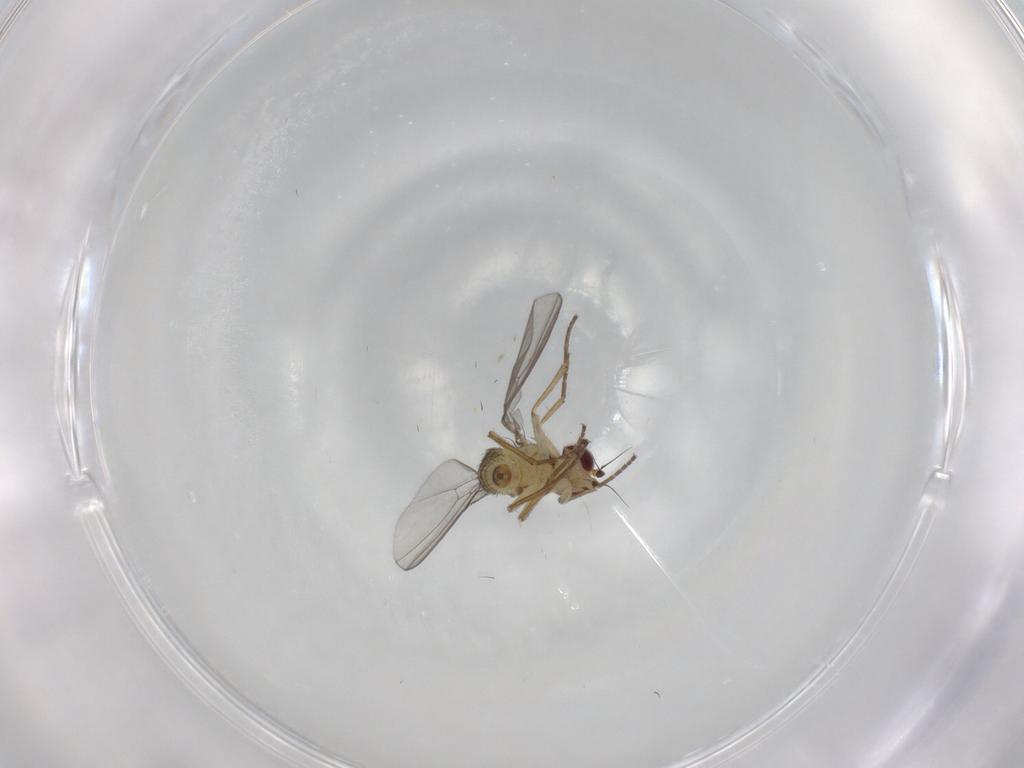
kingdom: Animalia
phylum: Arthropoda
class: Insecta
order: Diptera
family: Agromyzidae
